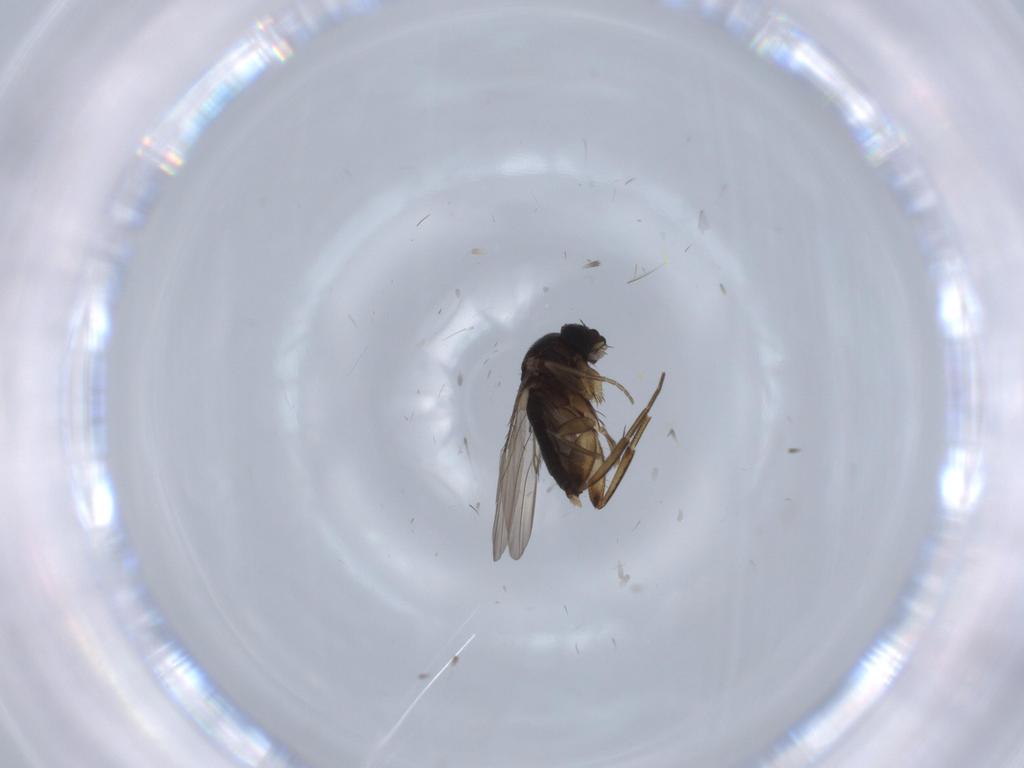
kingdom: Animalia
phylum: Arthropoda
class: Insecta
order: Diptera
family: Phoridae
